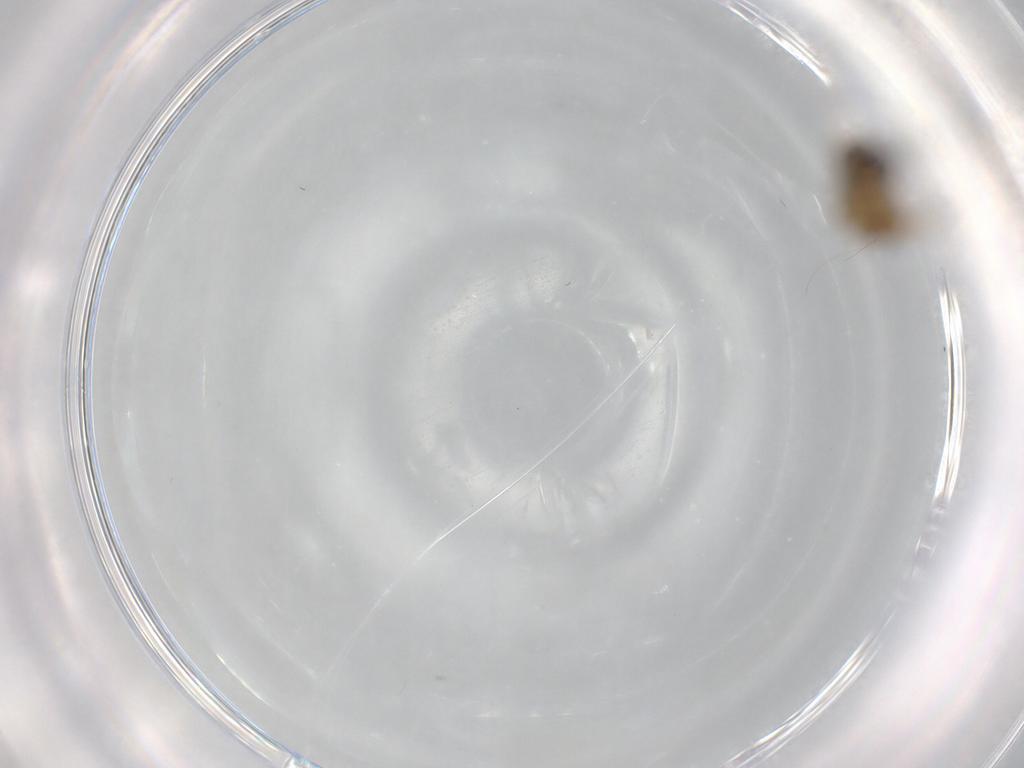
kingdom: Animalia
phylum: Arthropoda
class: Insecta
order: Diptera
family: Chironomidae
